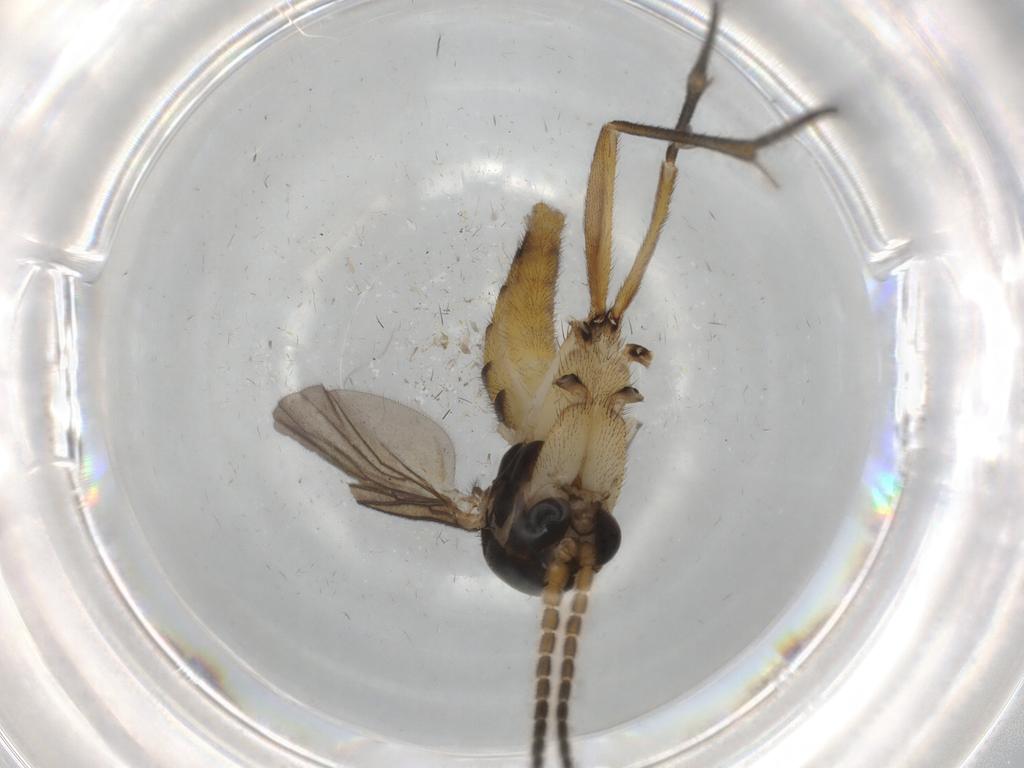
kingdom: Animalia
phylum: Arthropoda
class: Insecta
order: Diptera
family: Dolichopodidae
